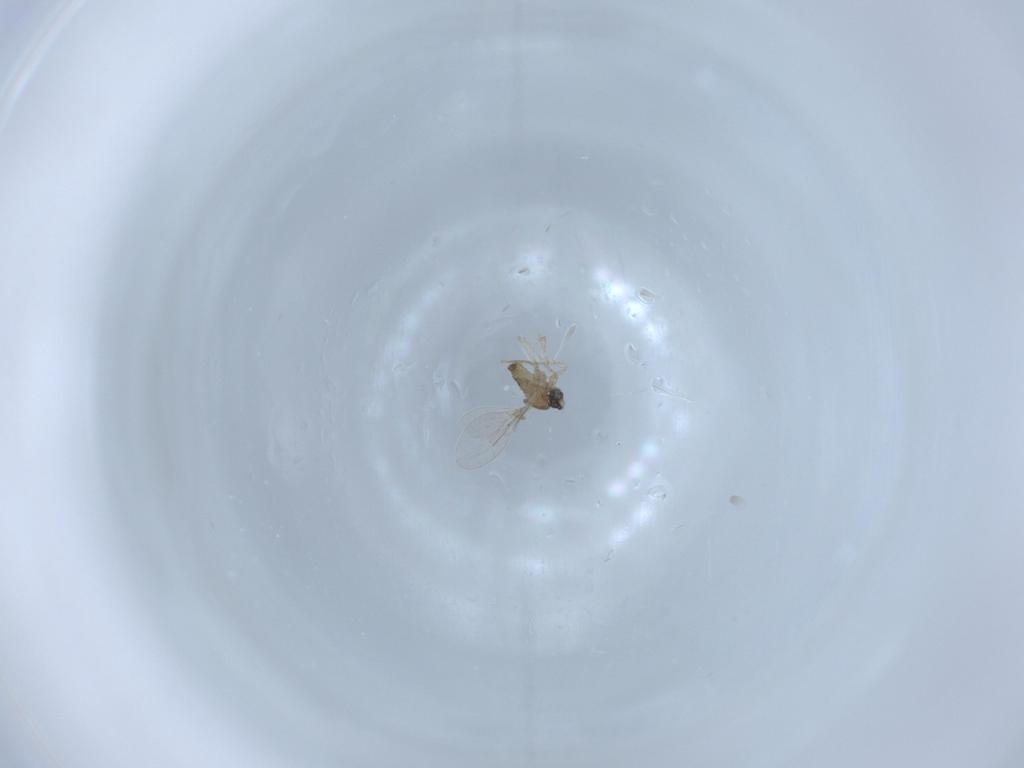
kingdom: Animalia
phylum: Arthropoda
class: Insecta
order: Diptera
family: Cecidomyiidae
